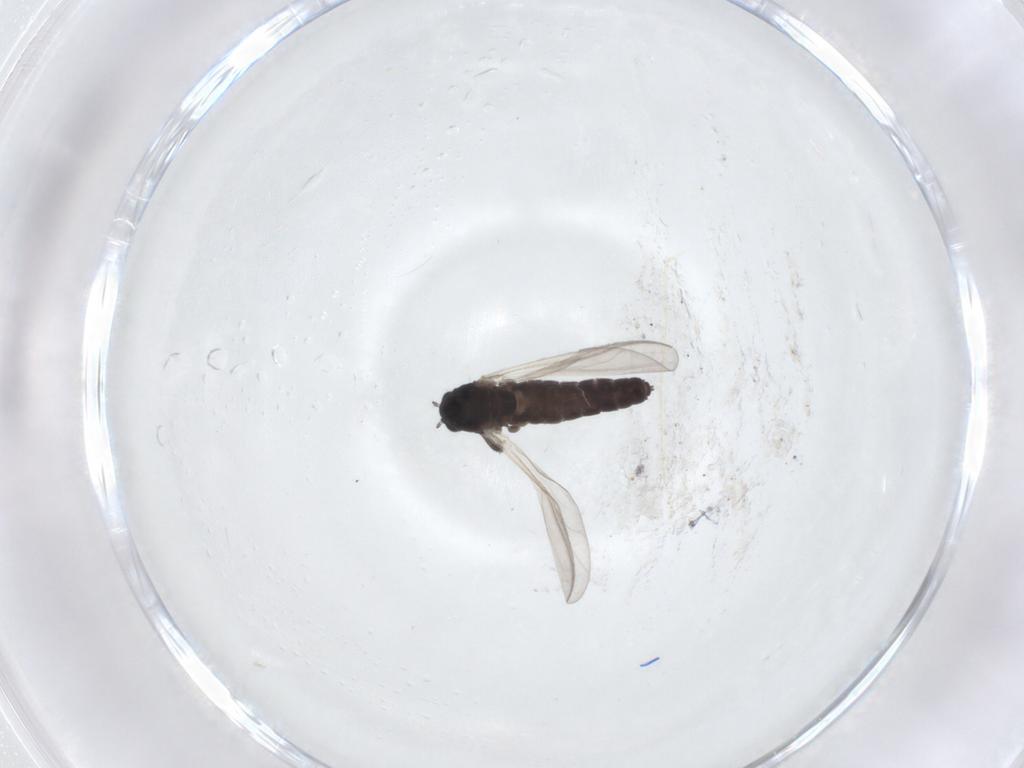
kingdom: Animalia
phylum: Arthropoda
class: Insecta
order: Diptera
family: Chironomidae
